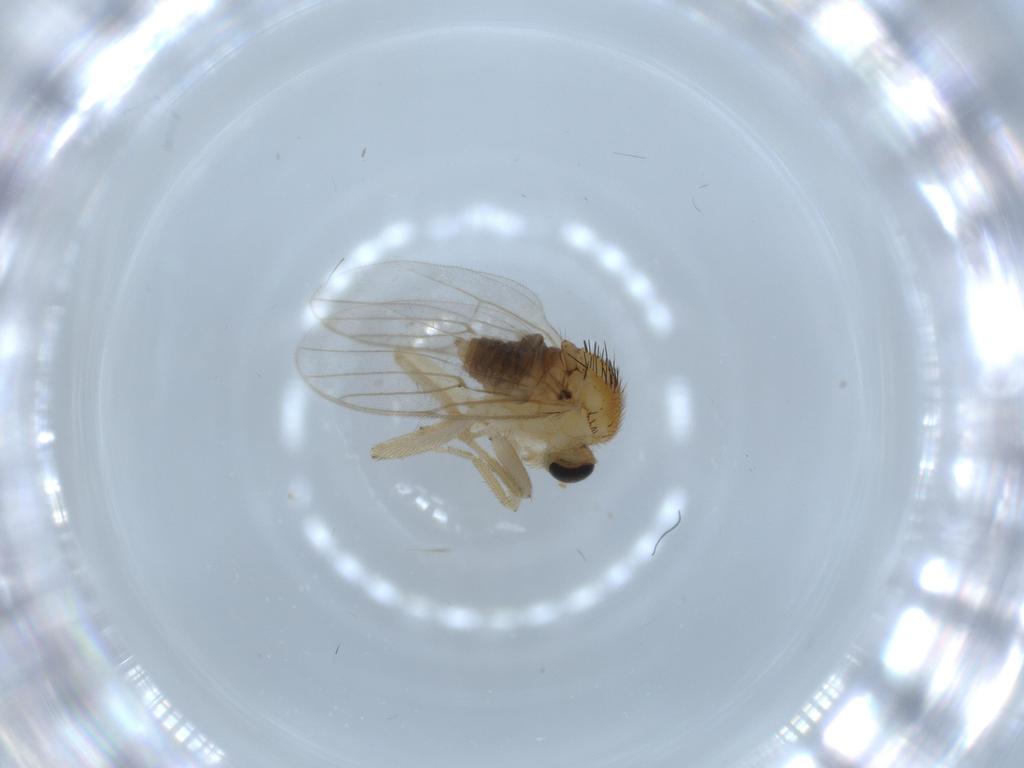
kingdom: Animalia
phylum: Arthropoda
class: Insecta
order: Diptera
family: Hybotidae
